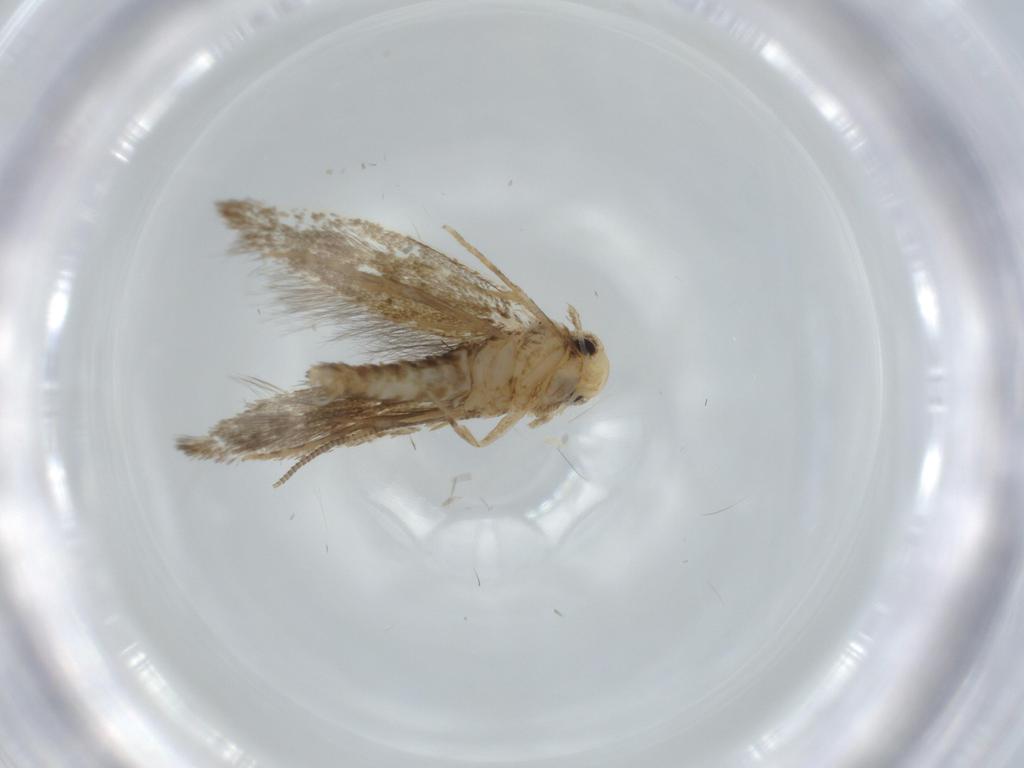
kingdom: Animalia
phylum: Arthropoda
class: Insecta
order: Lepidoptera
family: Tineidae
